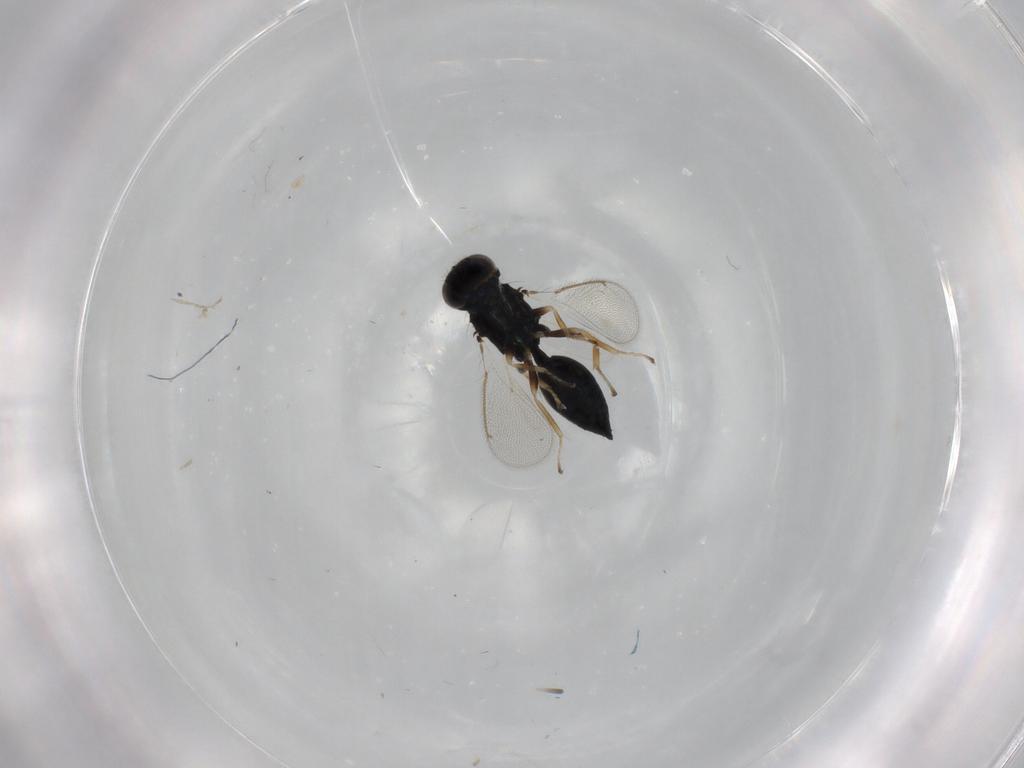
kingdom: Animalia
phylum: Arthropoda
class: Insecta
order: Hymenoptera
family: Eulophidae
